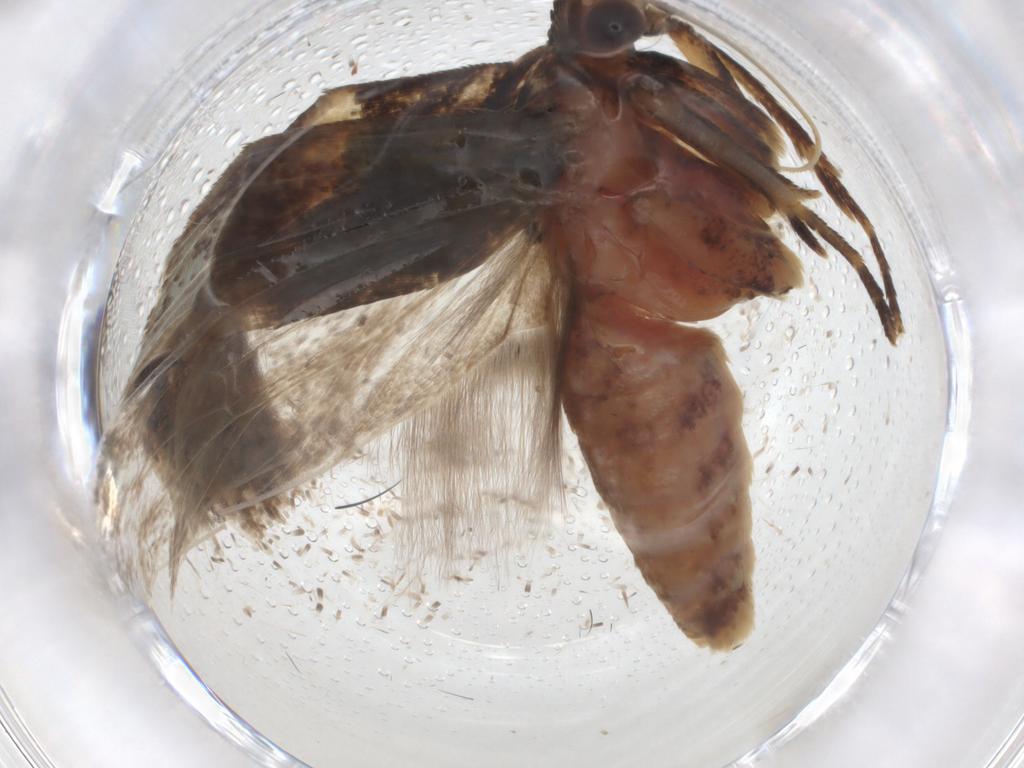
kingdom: Animalia
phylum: Arthropoda
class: Insecta
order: Lepidoptera
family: Gelechiidae
